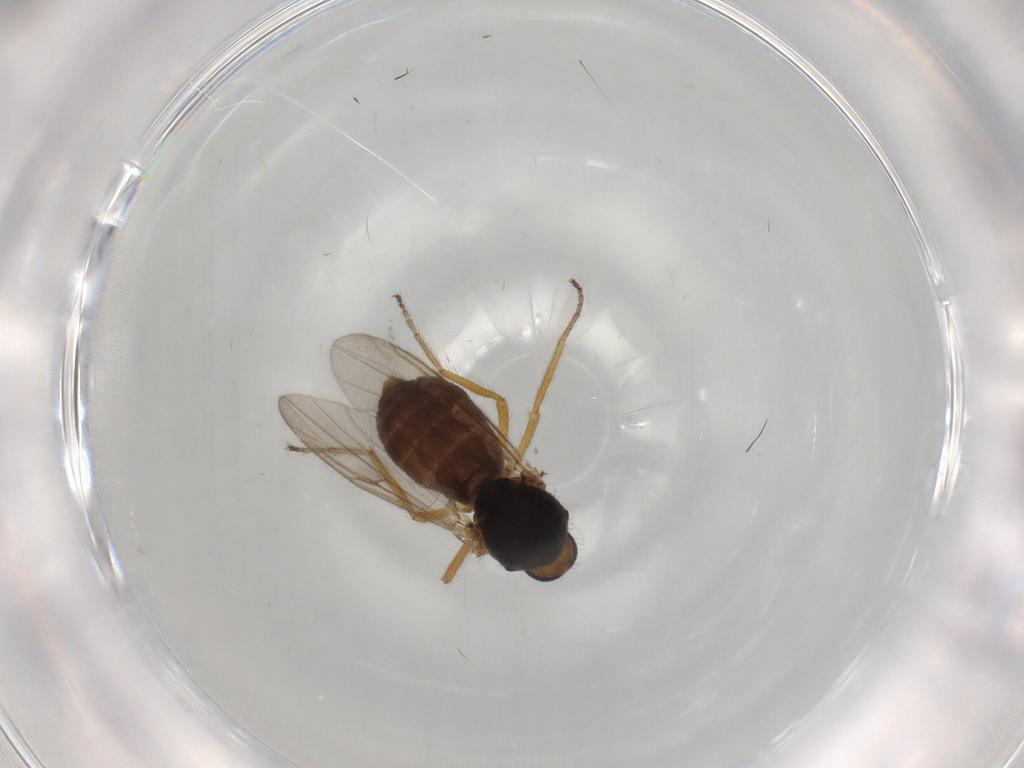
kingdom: Animalia
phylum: Arthropoda
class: Insecta
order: Diptera
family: Ceratopogonidae
